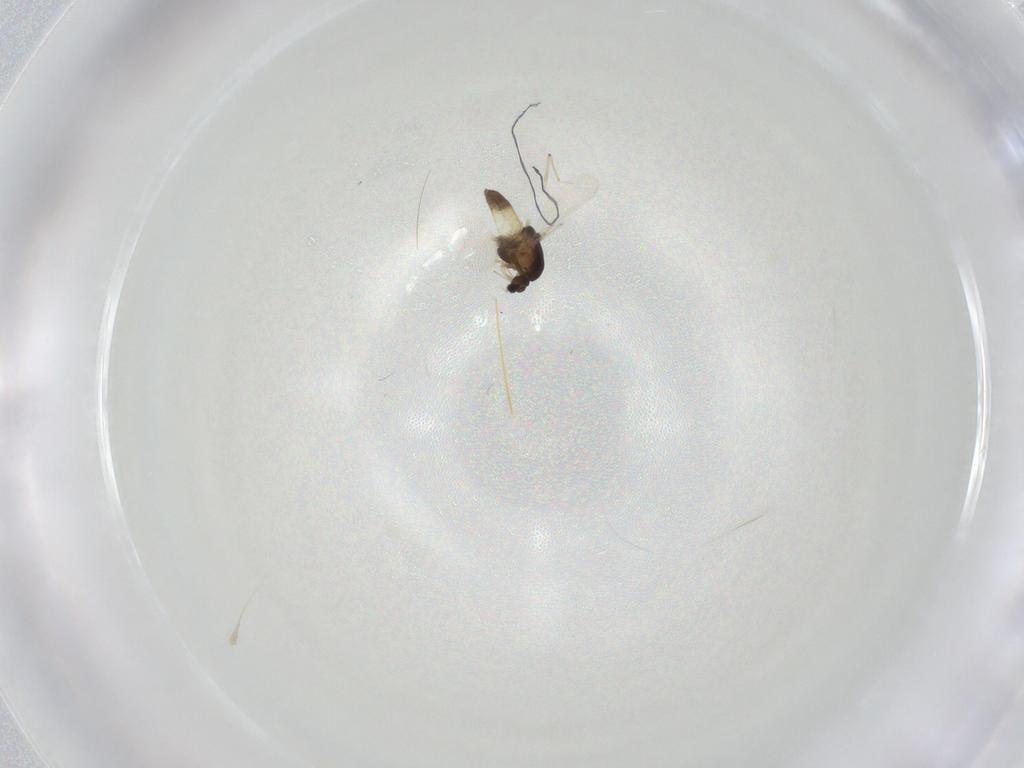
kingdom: Animalia
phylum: Arthropoda
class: Insecta
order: Diptera
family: Chironomidae
